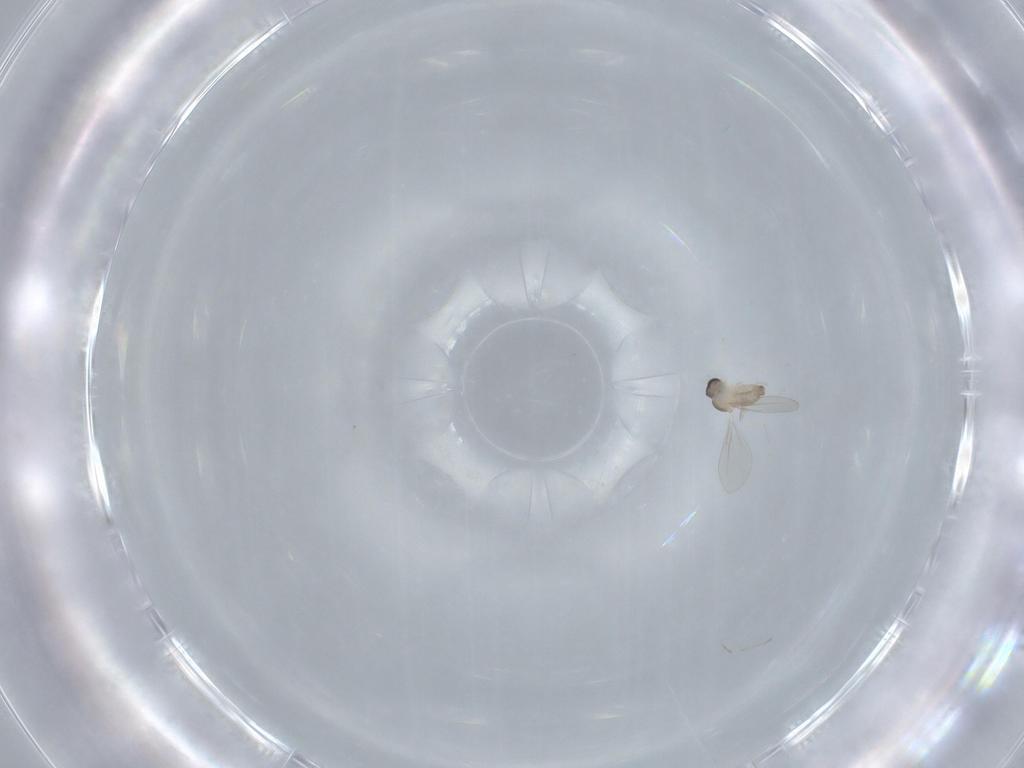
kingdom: Animalia
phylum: Arthropoda
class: Insecta
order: Diptera
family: Cecidomyiidae
